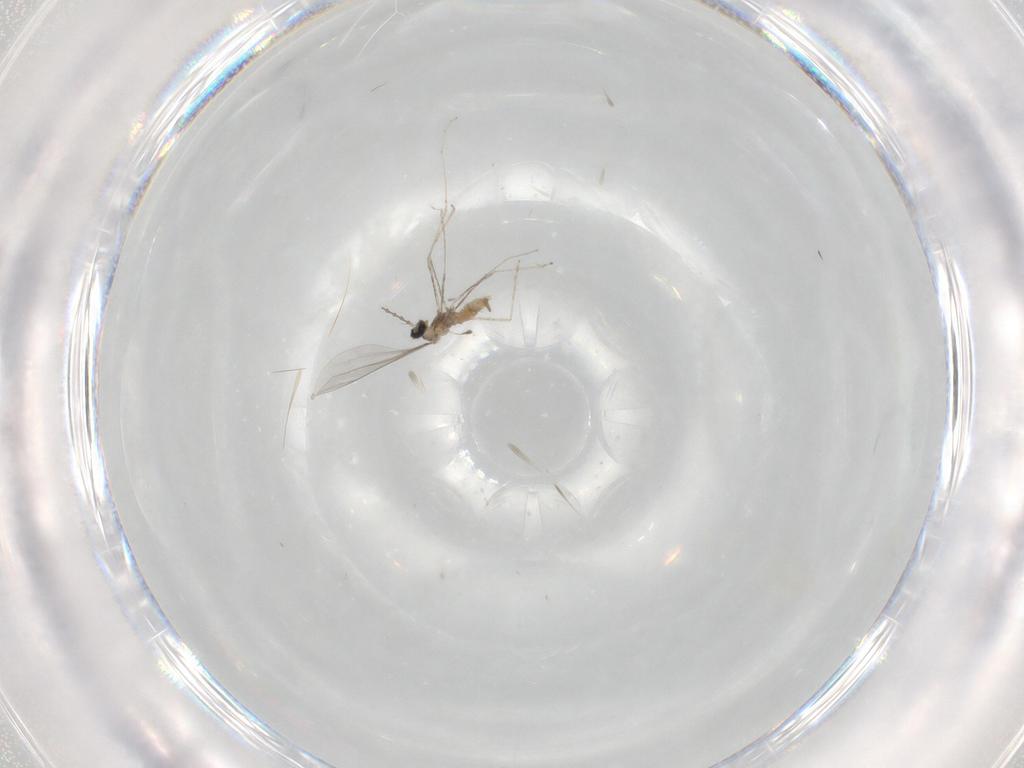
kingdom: Animalia
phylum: Arthropoda
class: Insecta
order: Diptera
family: Cecidomyiidae
